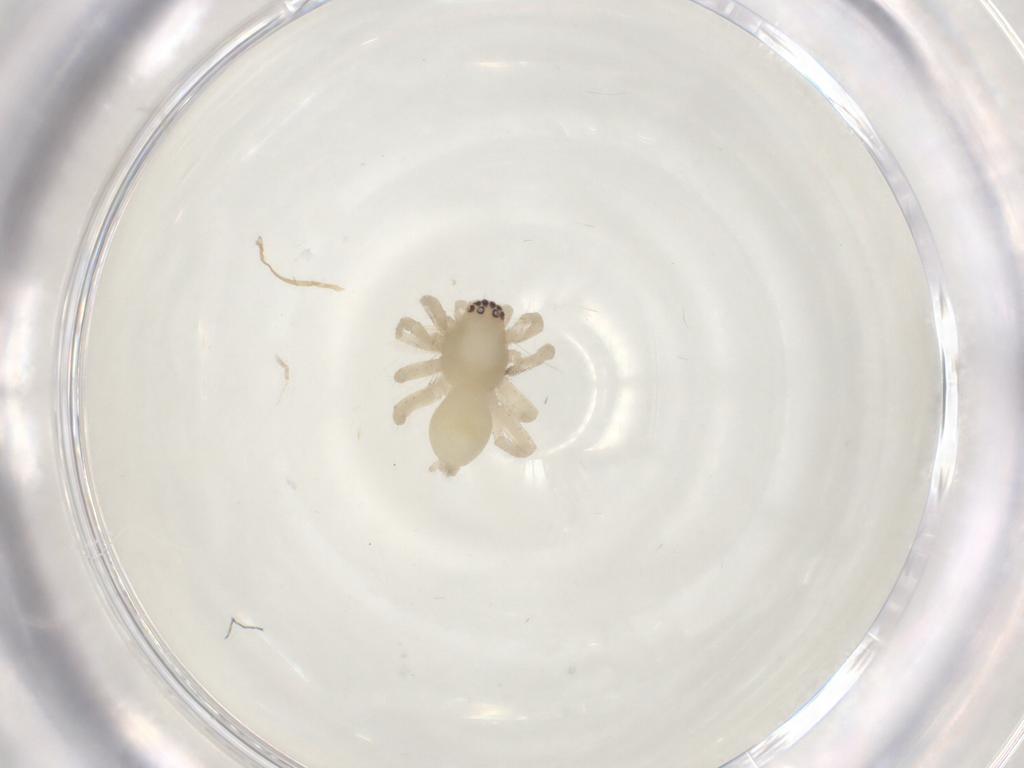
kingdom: Animalia
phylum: Arthropoda
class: Arachnida
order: Araneae
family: Clubionidae
